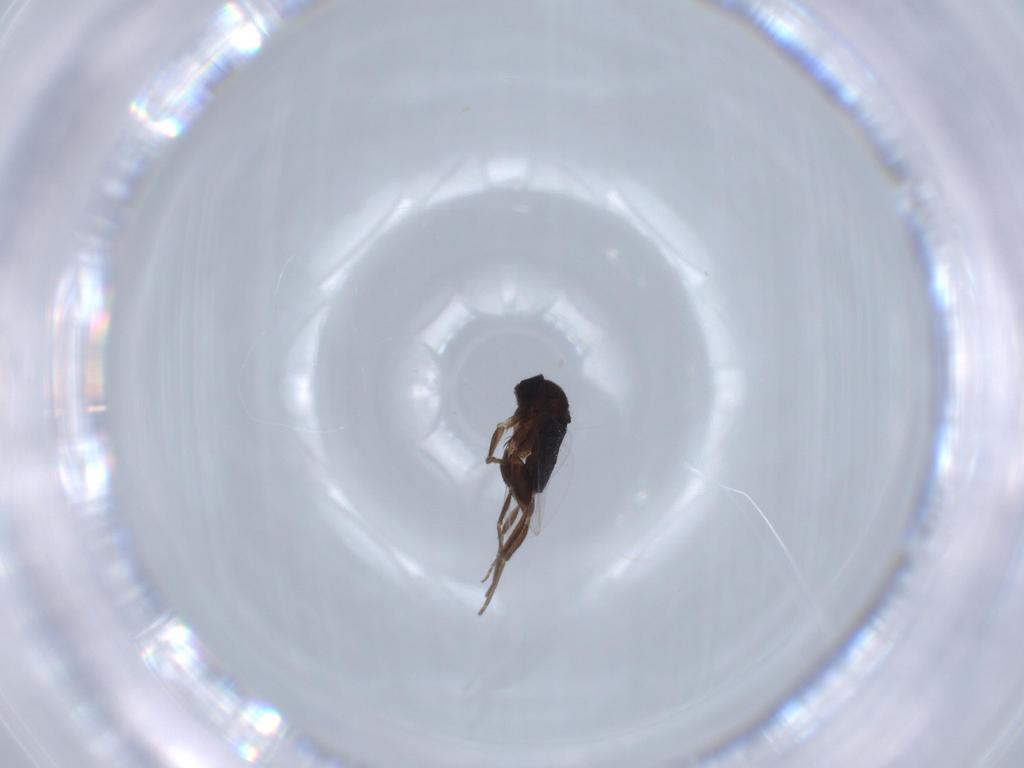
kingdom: Animalia
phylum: Arthropoda
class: Insecta
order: Diptera
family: Phoridae
